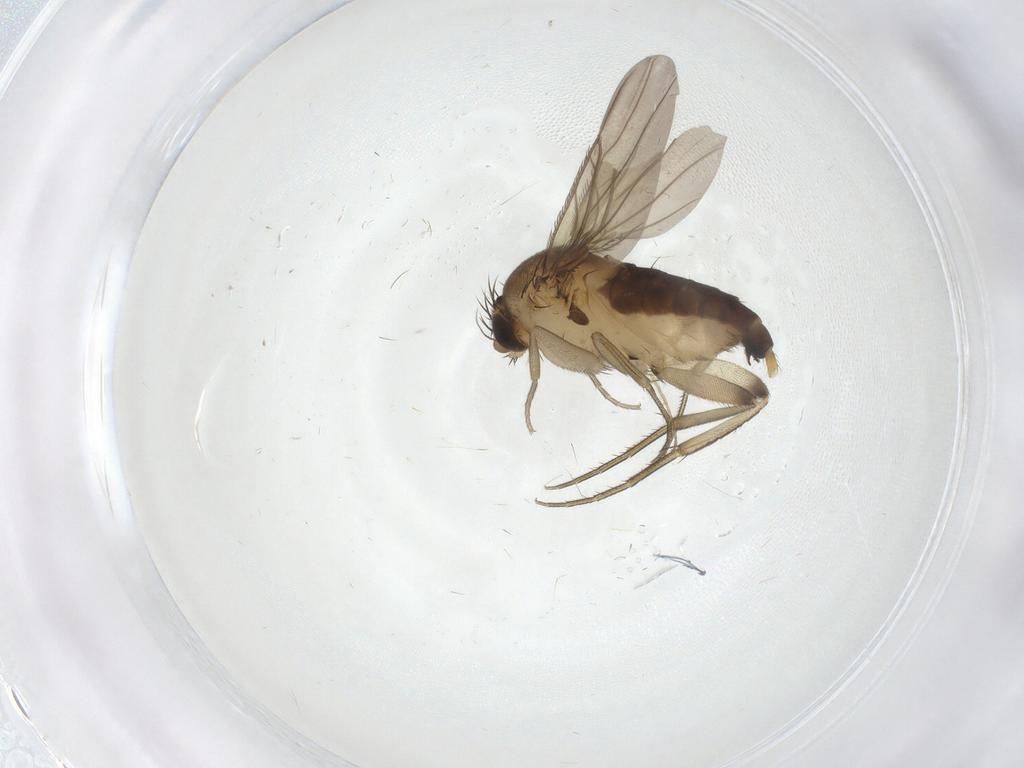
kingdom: Animalia
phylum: Arthropoda
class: Insecta
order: Diptera
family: Phoridae
